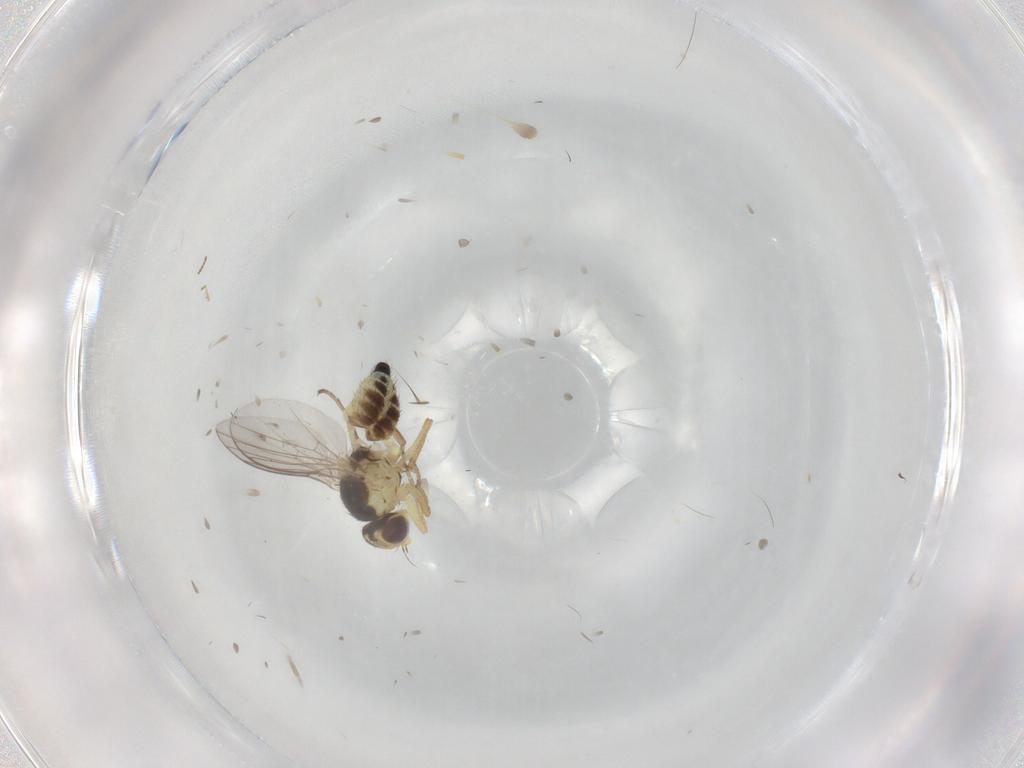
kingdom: Animalia
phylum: Arthropoda
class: Insecta
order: Diptera
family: Agromyzidae
